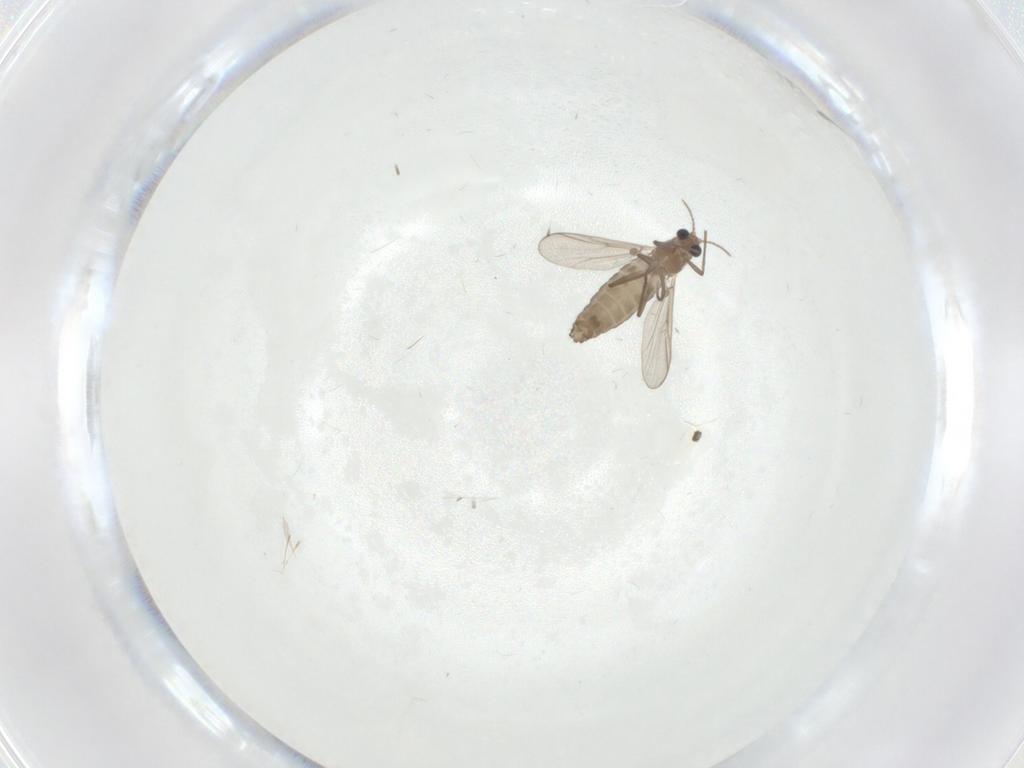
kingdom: Animalia
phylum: Arthropoda
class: Insecta
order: Diptera
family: Chironomidae
